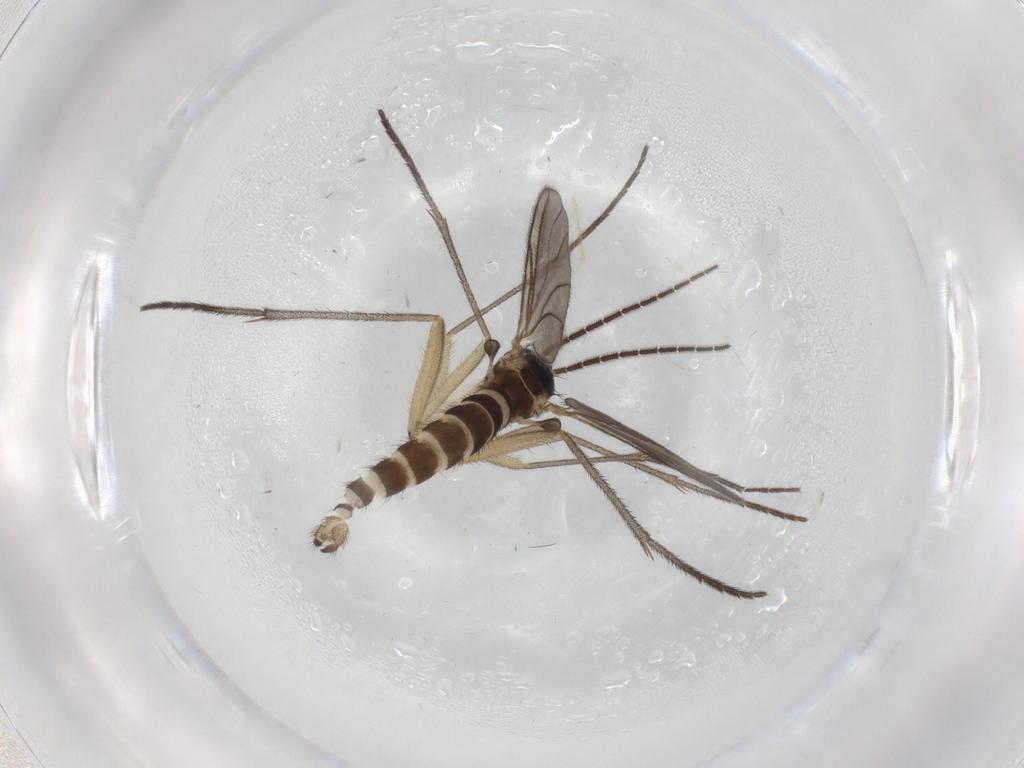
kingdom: Animalia
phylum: Arthropoda
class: Insecta
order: Diptera
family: Sciaridae
